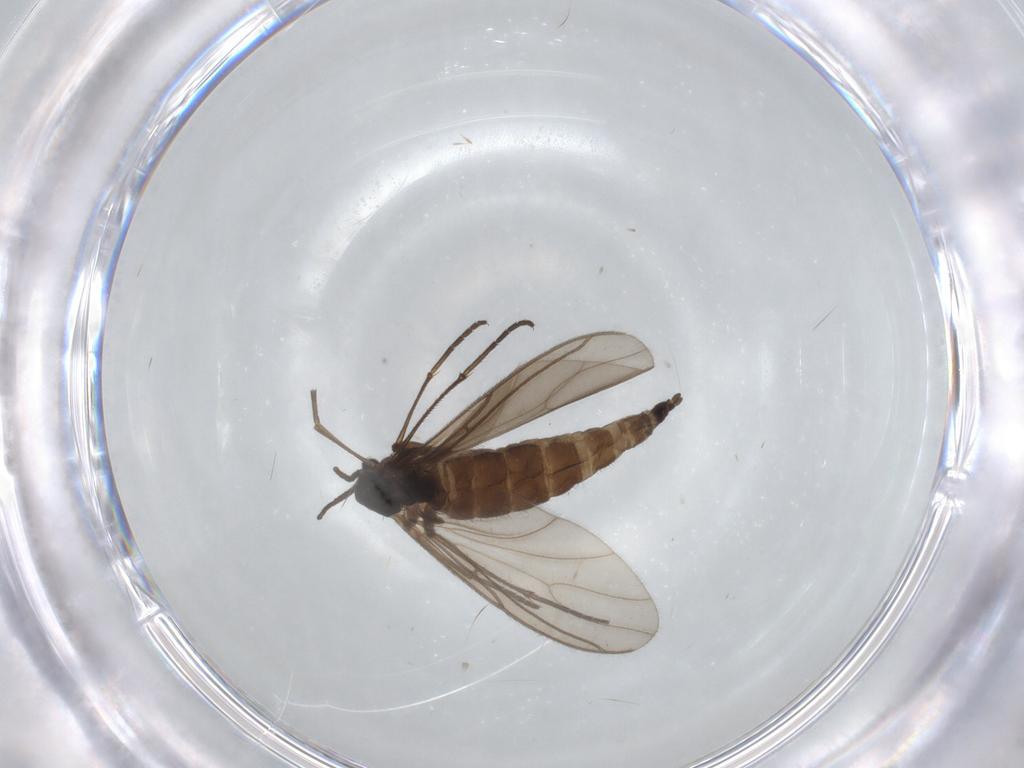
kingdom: Animalia
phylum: Arthropoda
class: Insecta
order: Diptera
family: Sciaridae
